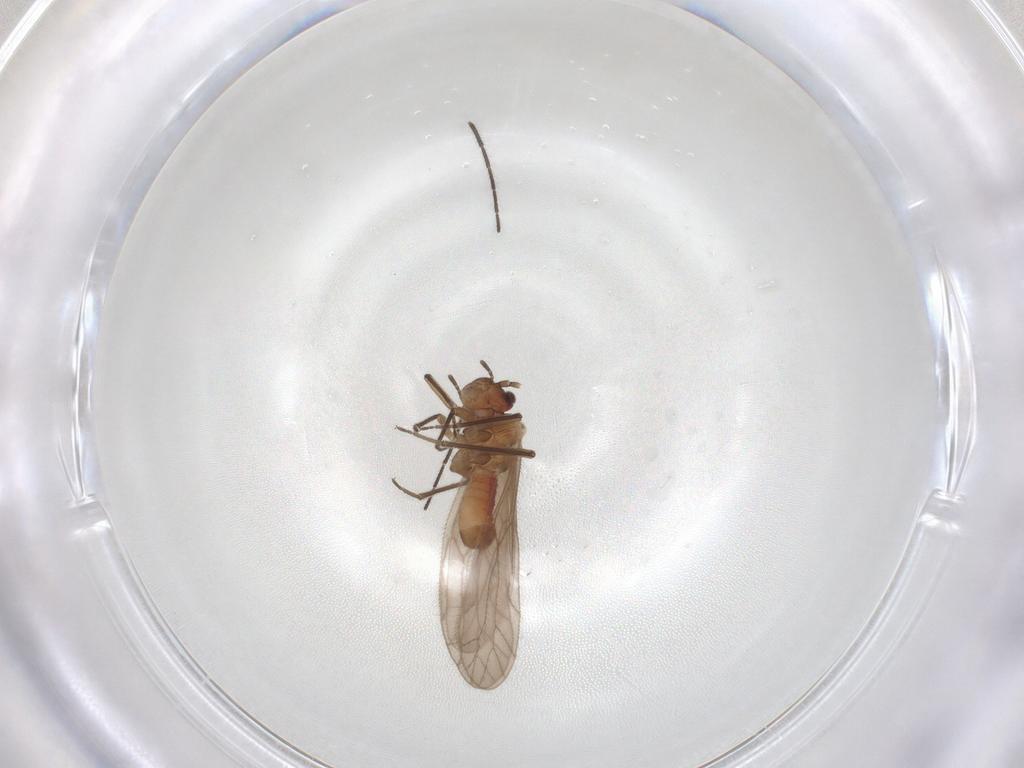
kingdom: Animalia
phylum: Arthropoda
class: Insecta
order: Psocodea
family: Trichopsocidae
